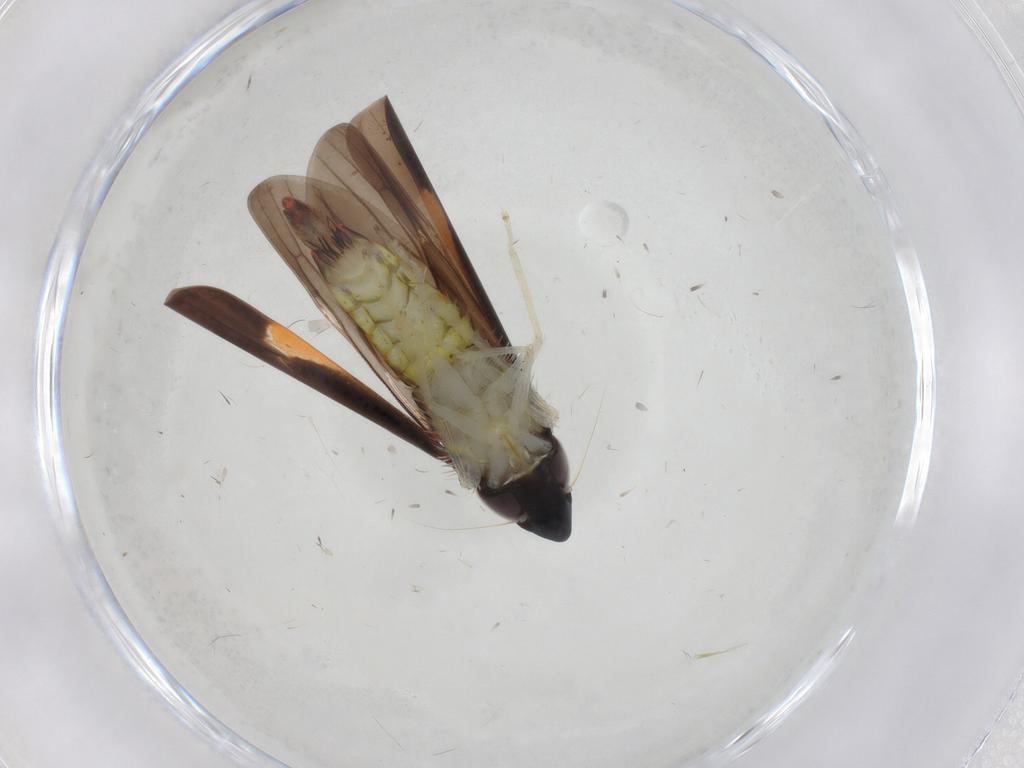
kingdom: Animalia
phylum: Arthropoda
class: Insecta
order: Hemiptera
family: Cicadellidae
